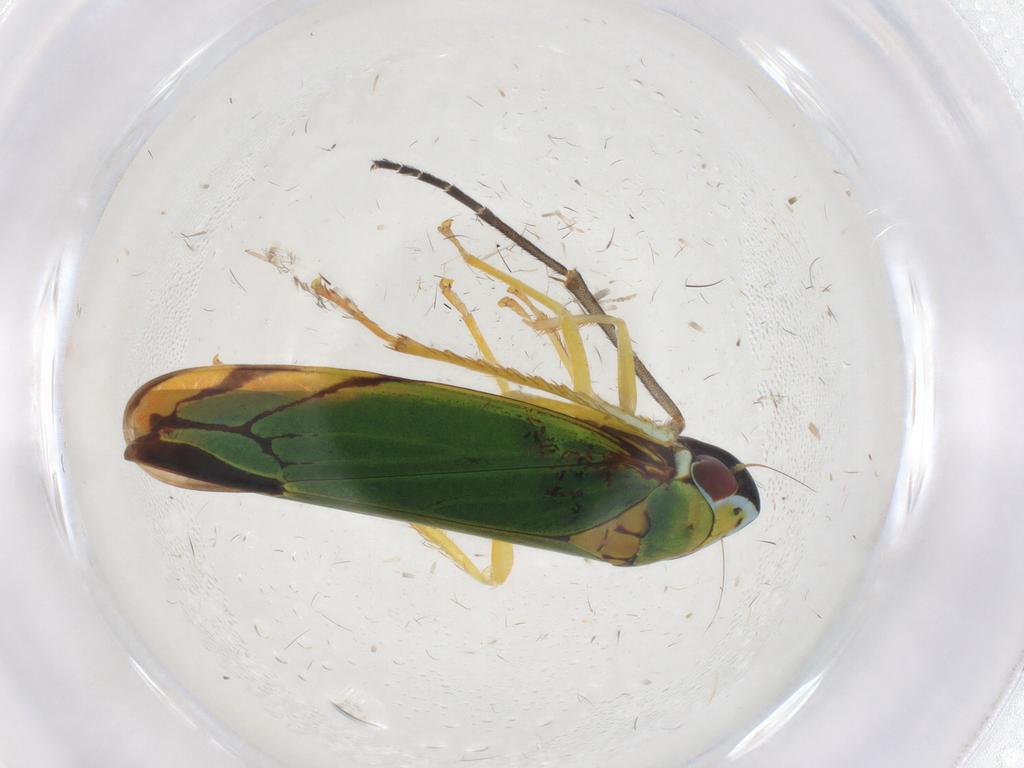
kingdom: Animalia
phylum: Arthropoda
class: Insecta
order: Hemiptera
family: Cicadellidae
